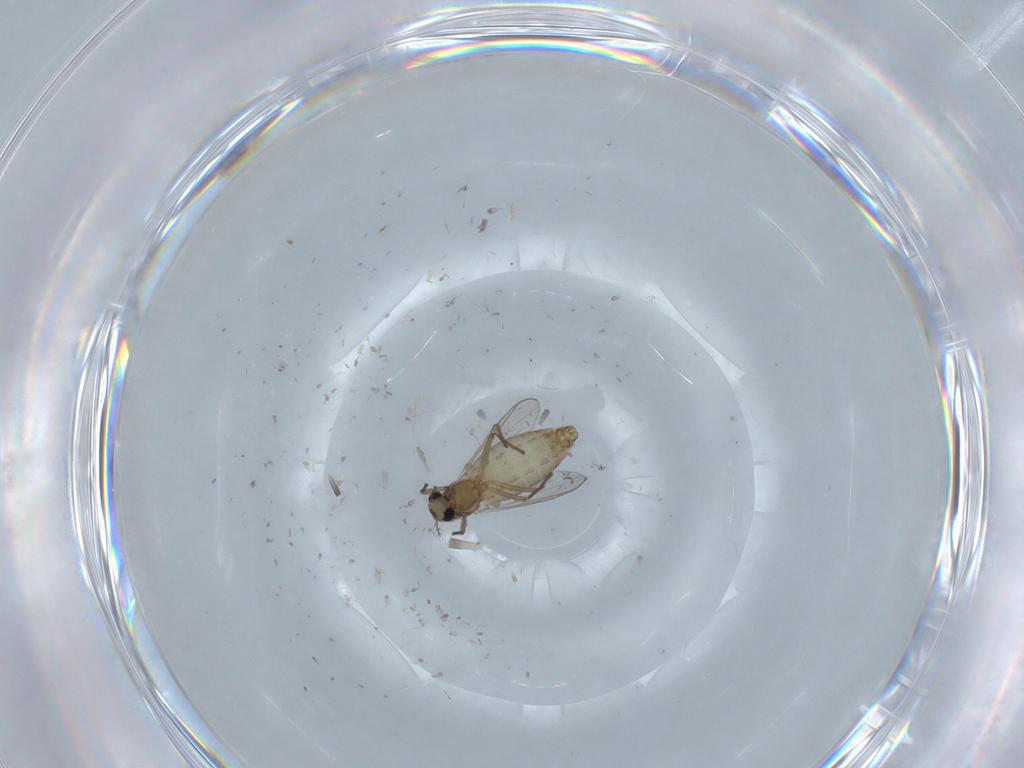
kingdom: Animalia
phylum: Arthropoda
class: Insecta
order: Diptera
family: Chironomidae
